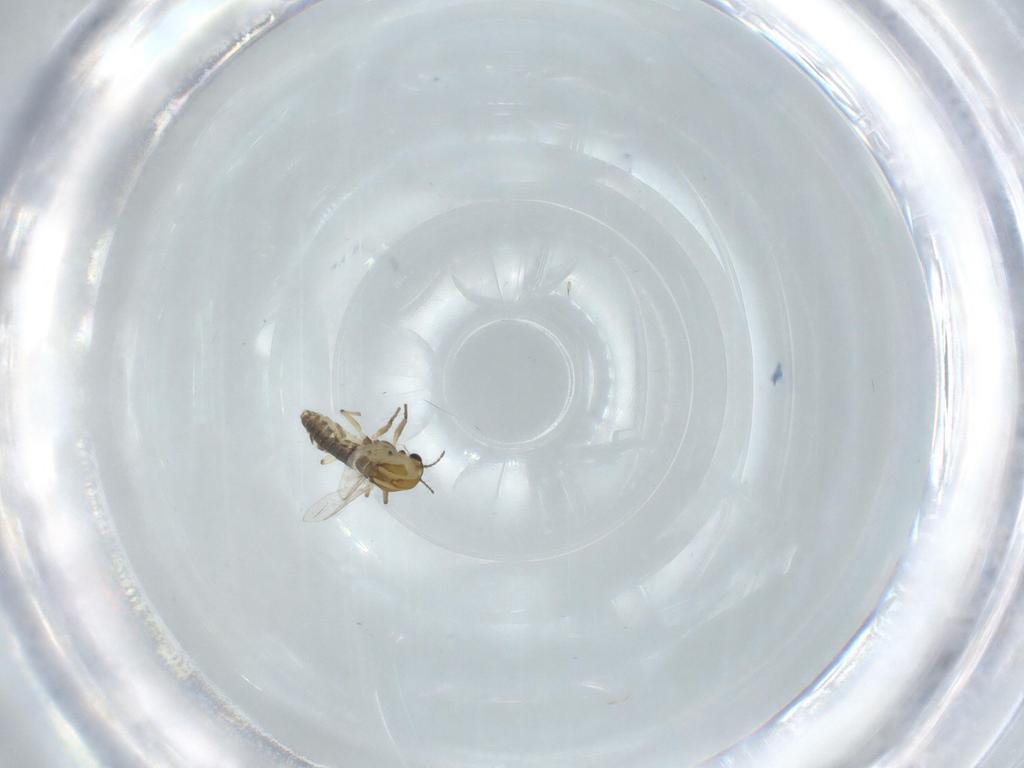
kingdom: Animalia
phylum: Arthropoda
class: Insecta
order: Diptera
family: Chironomidae
